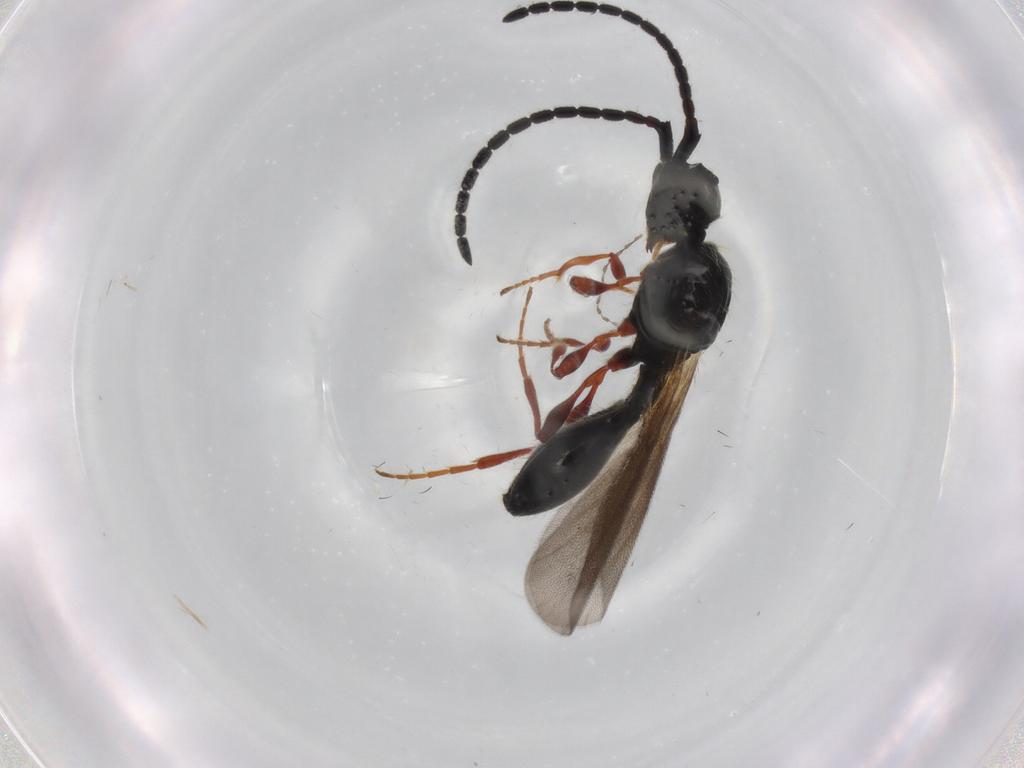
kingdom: Animalia
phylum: Arthropoda
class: Insecta
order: Hymenoptera
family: Diapriidae
